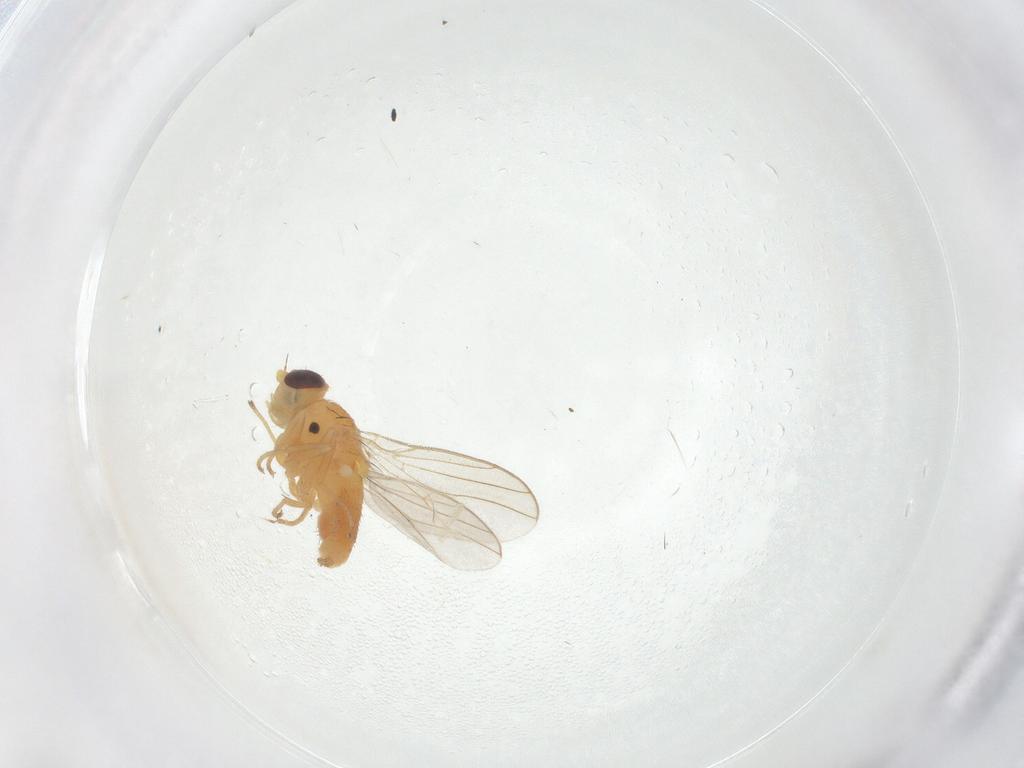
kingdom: Animalia
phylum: Arthropoda
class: Insecta
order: Diptera
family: Chloropidae
